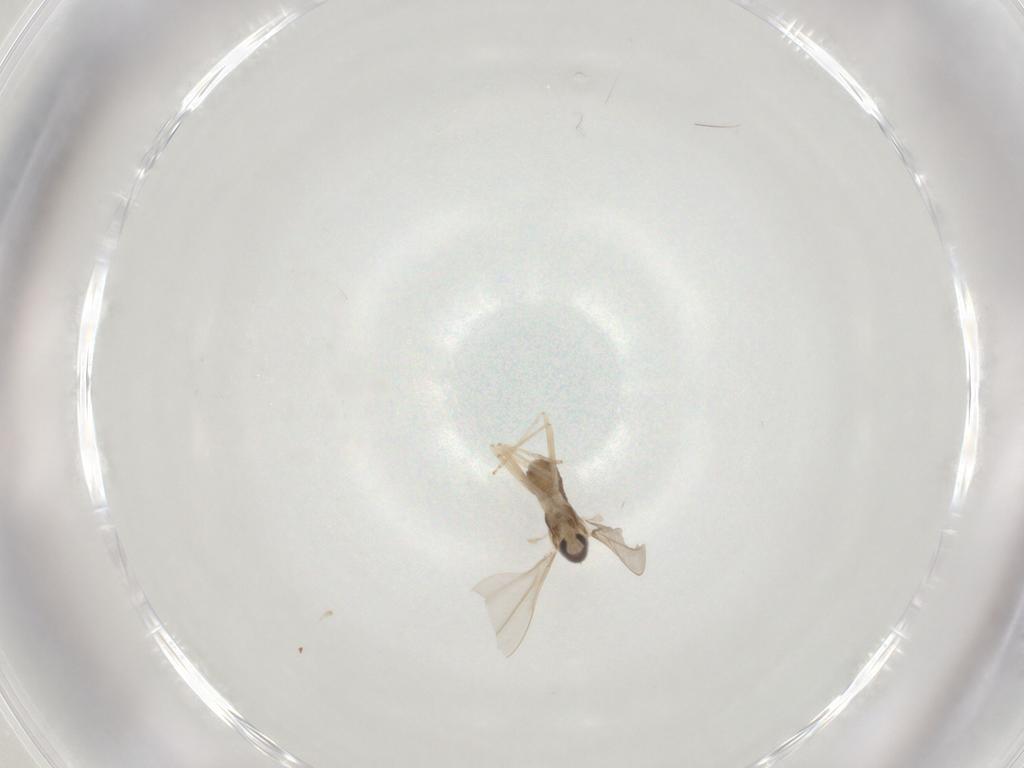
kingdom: Animalia
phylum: Arthropoda
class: Insecta
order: Diptera
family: Cecidomyiidae
